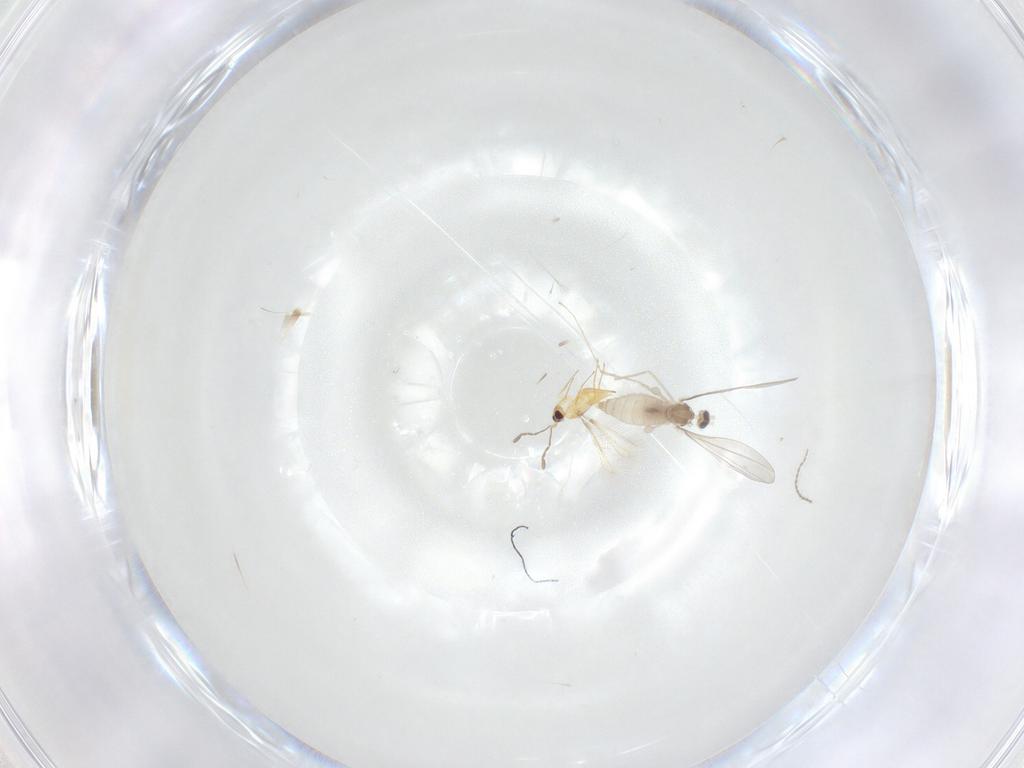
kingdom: Animalia
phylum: Arthropoda
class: Insecta
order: Diptera
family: Cecidomyiidae
